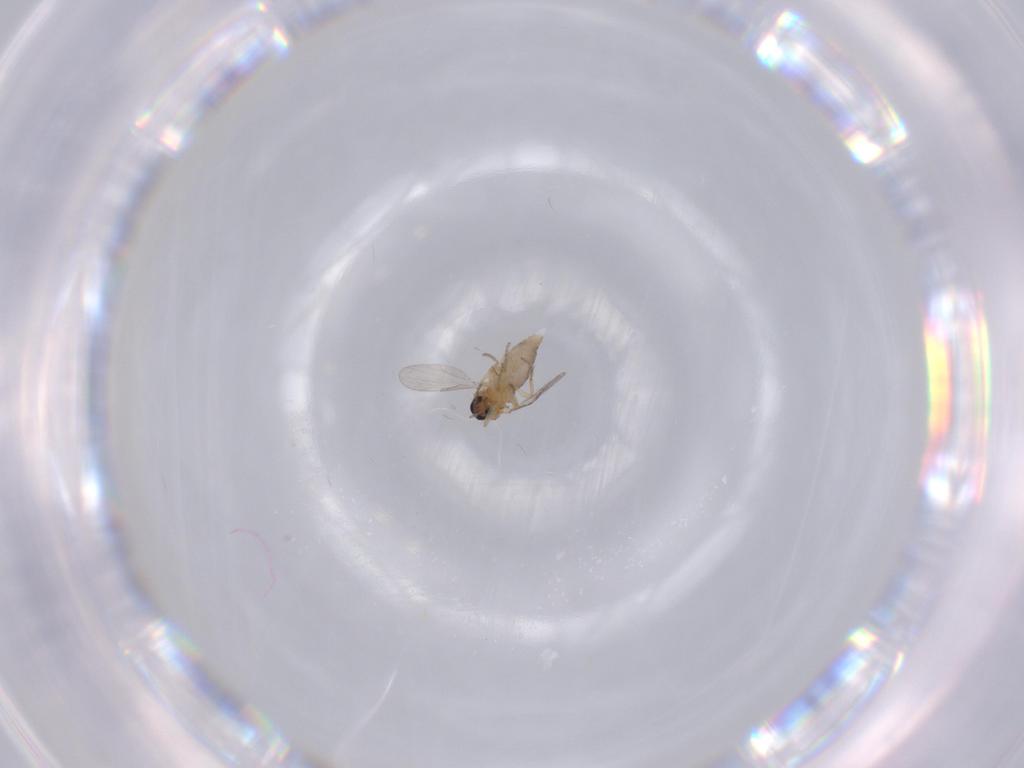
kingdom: Animalia
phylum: Arthropoda
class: Insecta
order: Diptera
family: Ceratopogonidae
